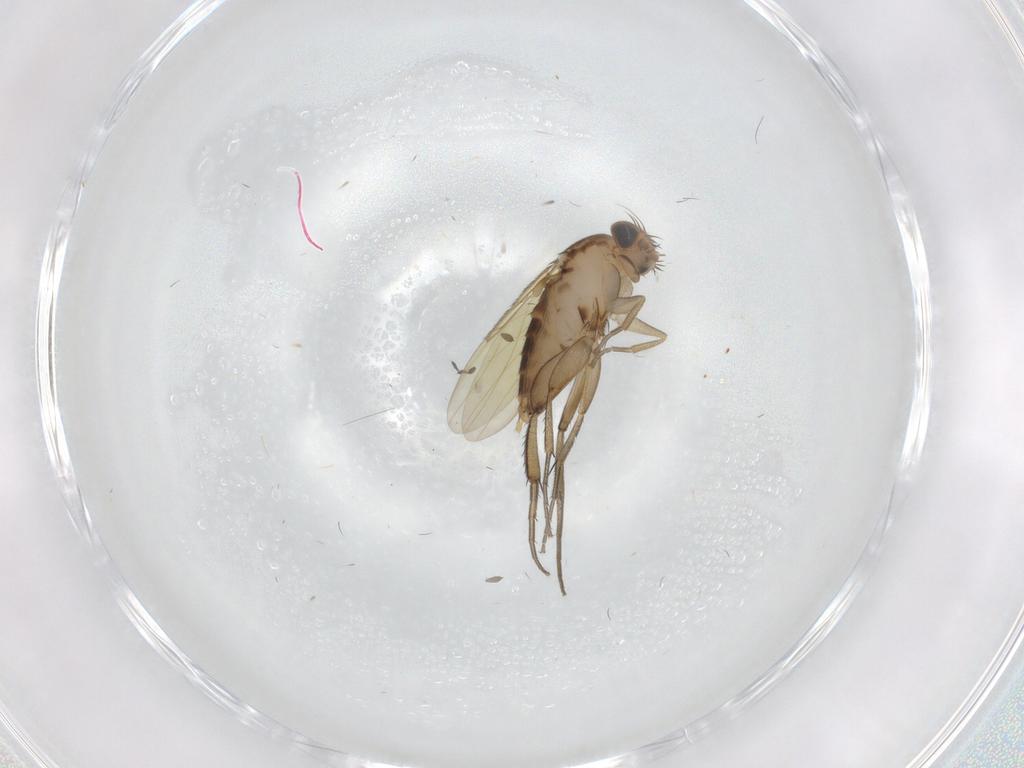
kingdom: Animalia
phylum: Arthropoda
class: Insecta
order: Diptera
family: Phoridae
